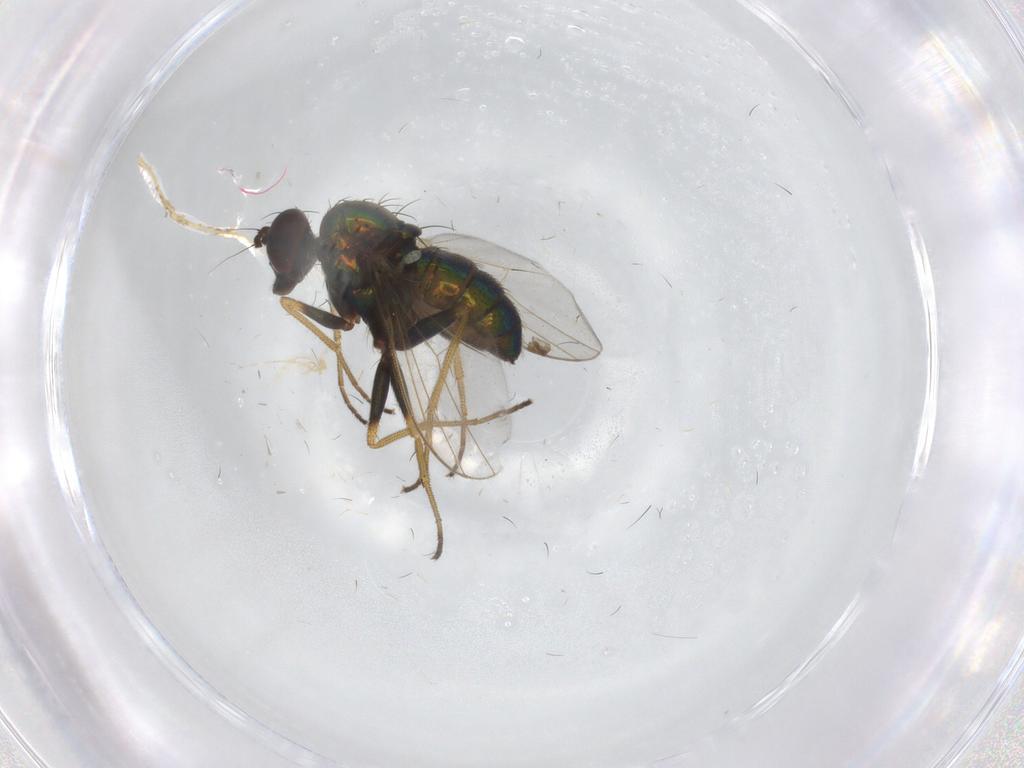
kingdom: Animalia
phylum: Arthropoda
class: Insecta
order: Diptera
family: Dolichopodidae
